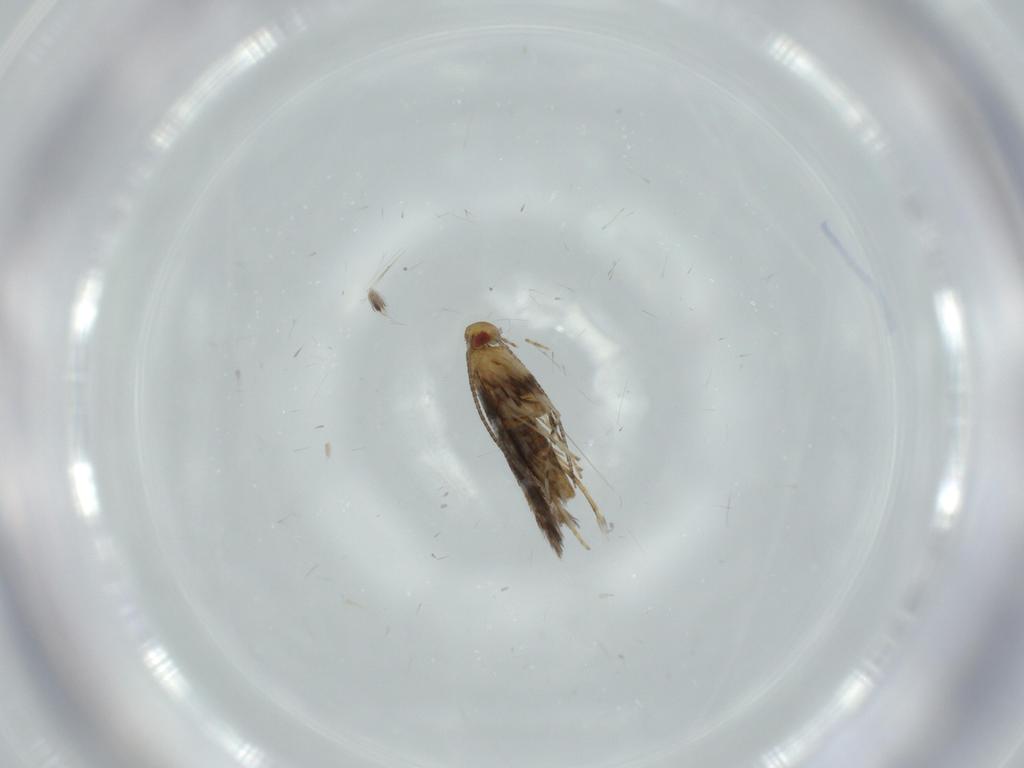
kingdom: Animalia
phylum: Arthropoda
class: Insecta
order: Lepidoptera
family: Gracillariidae
